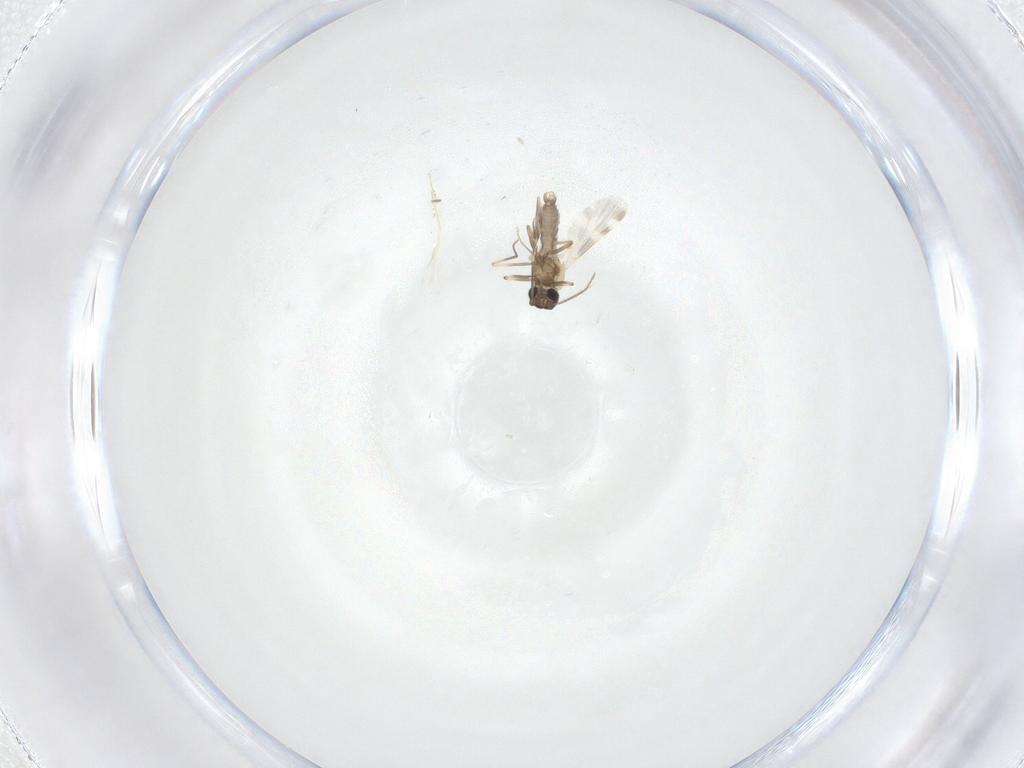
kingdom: Animalia
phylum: Arthropoda
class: Insecta
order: Diptera
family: Ceratopogonidae
